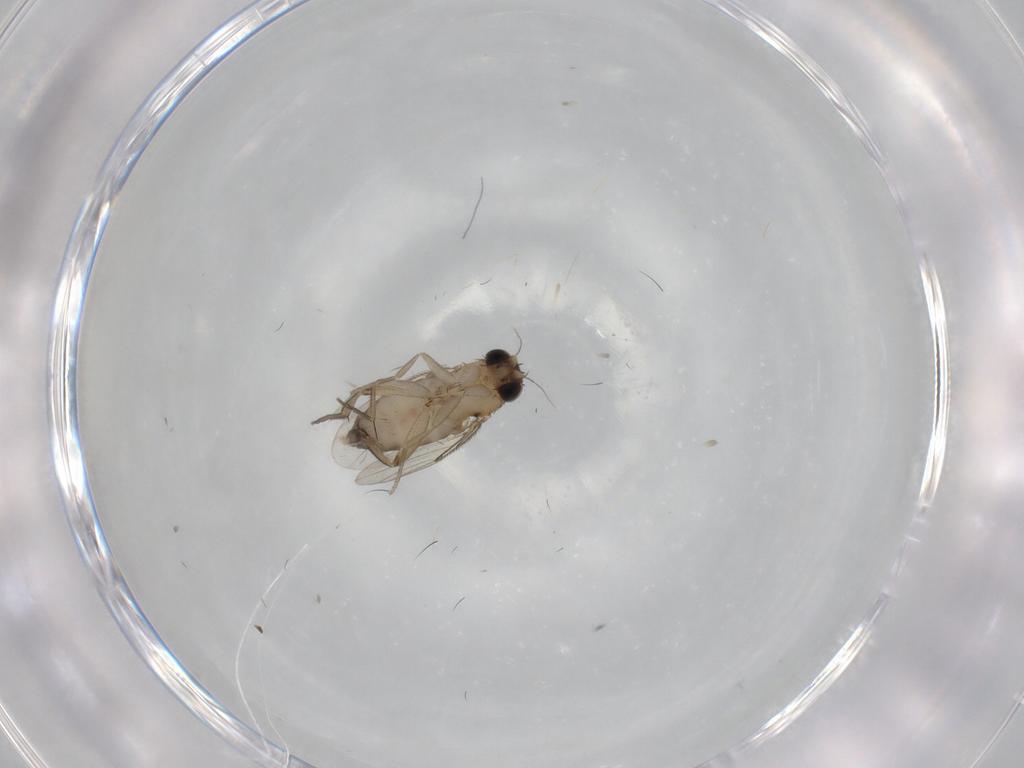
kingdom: Animalia
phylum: Arthropoda
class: Insecta
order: Diptera
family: Phoridae
